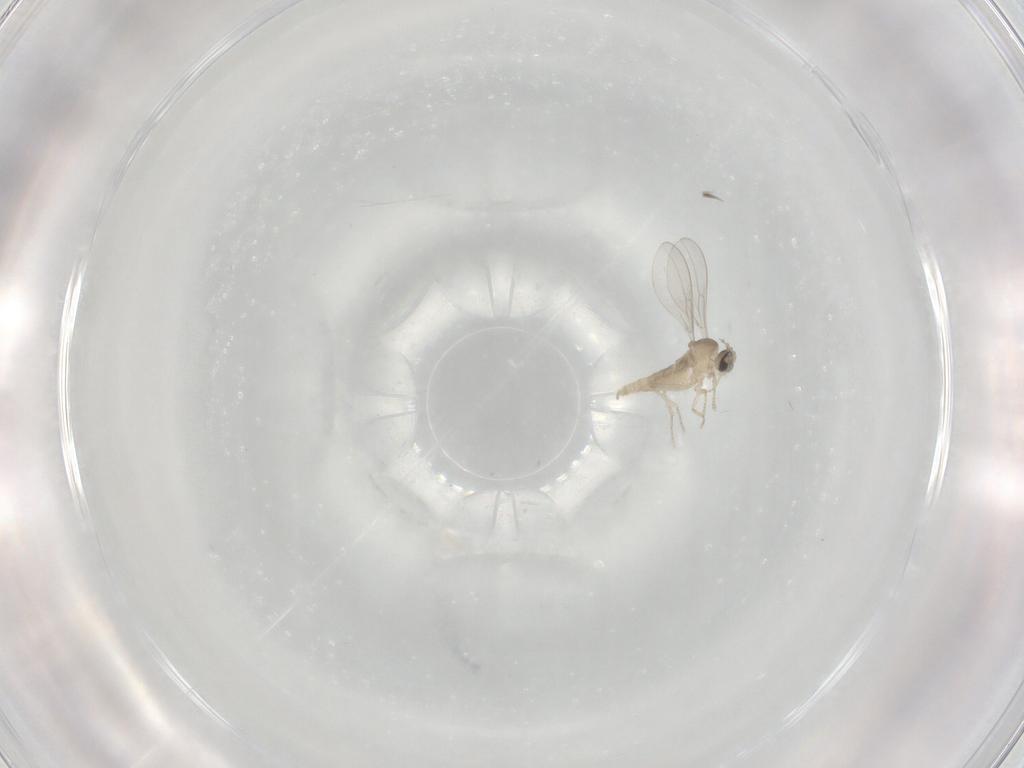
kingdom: Animalia
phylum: Arthropoda
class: Insecta
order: Diptera
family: Cecidomyiidae
